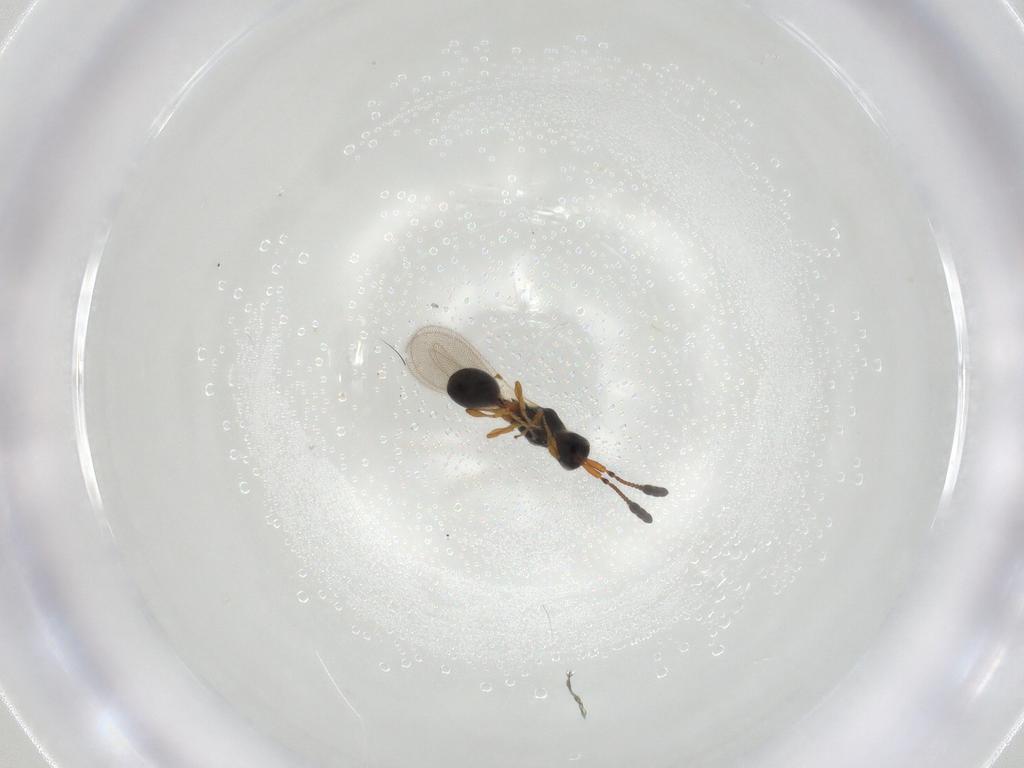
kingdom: Animalia
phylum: Arthropoda
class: Insecta
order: Hymenoptera
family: Diapriidae
